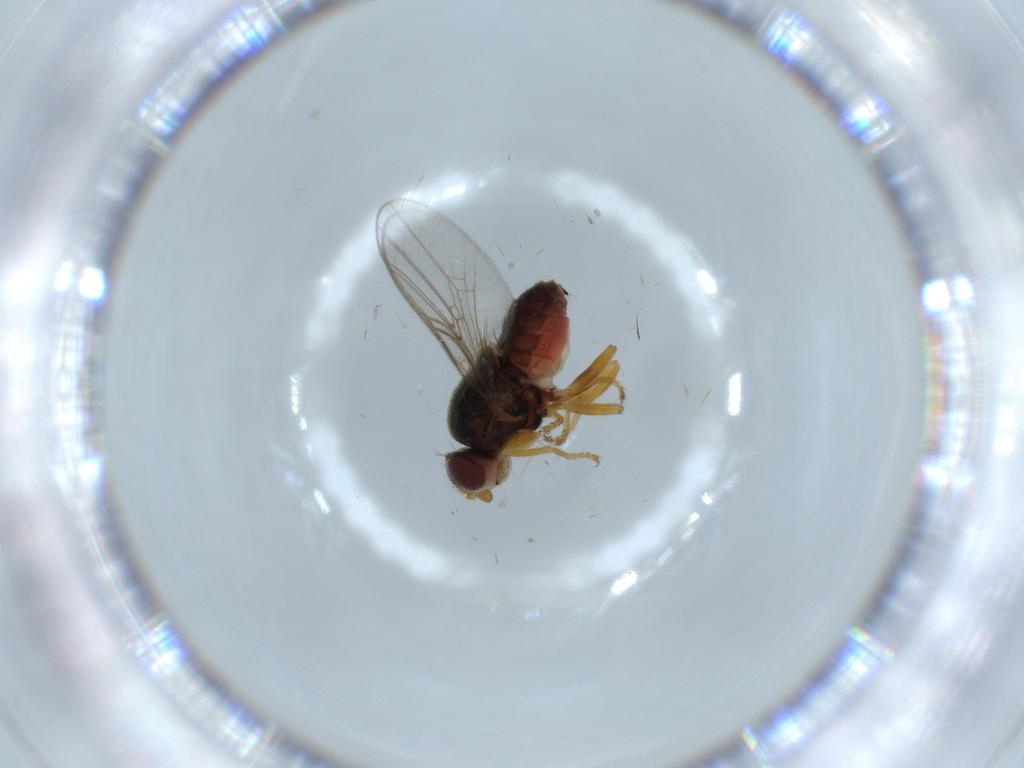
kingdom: Animalia
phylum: Arthropoda
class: Insecta
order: Diptera
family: Chloropidae
